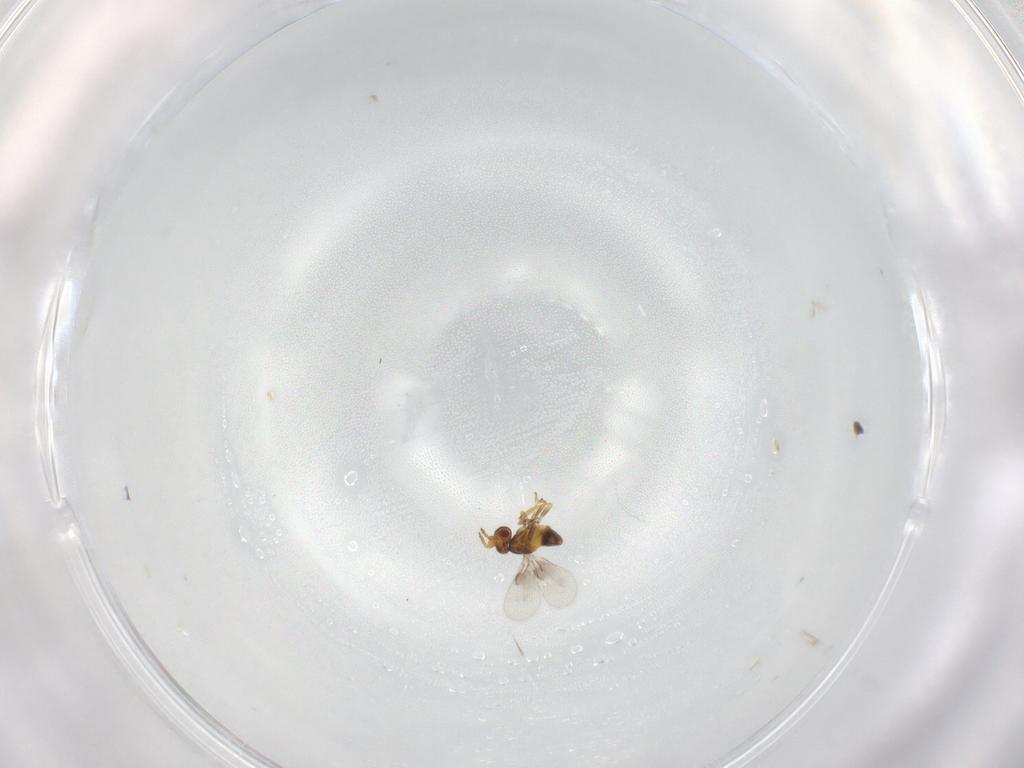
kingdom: Animalia
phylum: Arthropoda
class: Insecta
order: Hymenoptera
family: Trichogrammatidae
